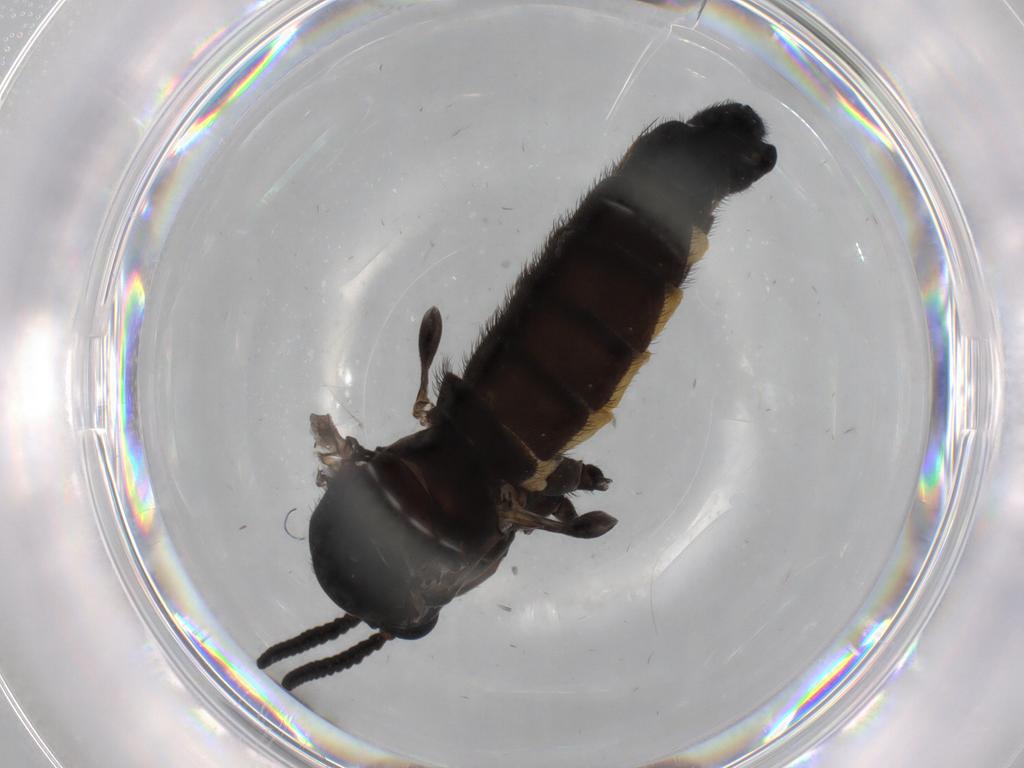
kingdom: Animalia
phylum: Arthropoda
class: Insecta
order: Diptera
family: Sciaridae
